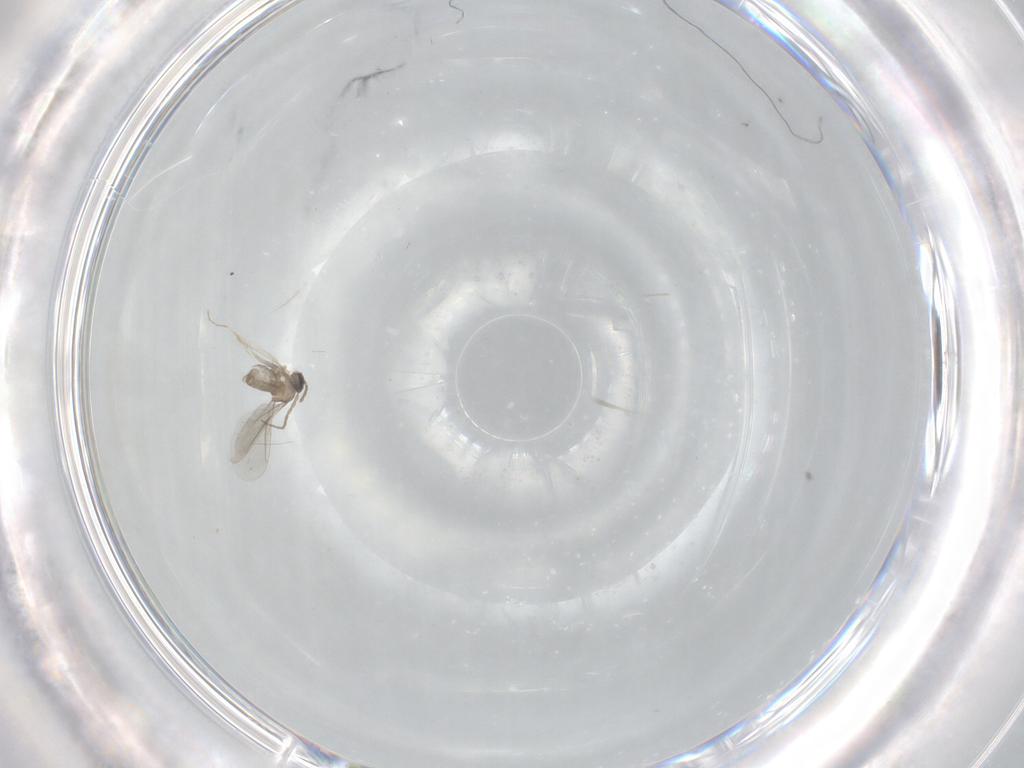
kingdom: Animalia
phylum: Arthropoda
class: Insecta
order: Diptera
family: Cecidomyiidae
